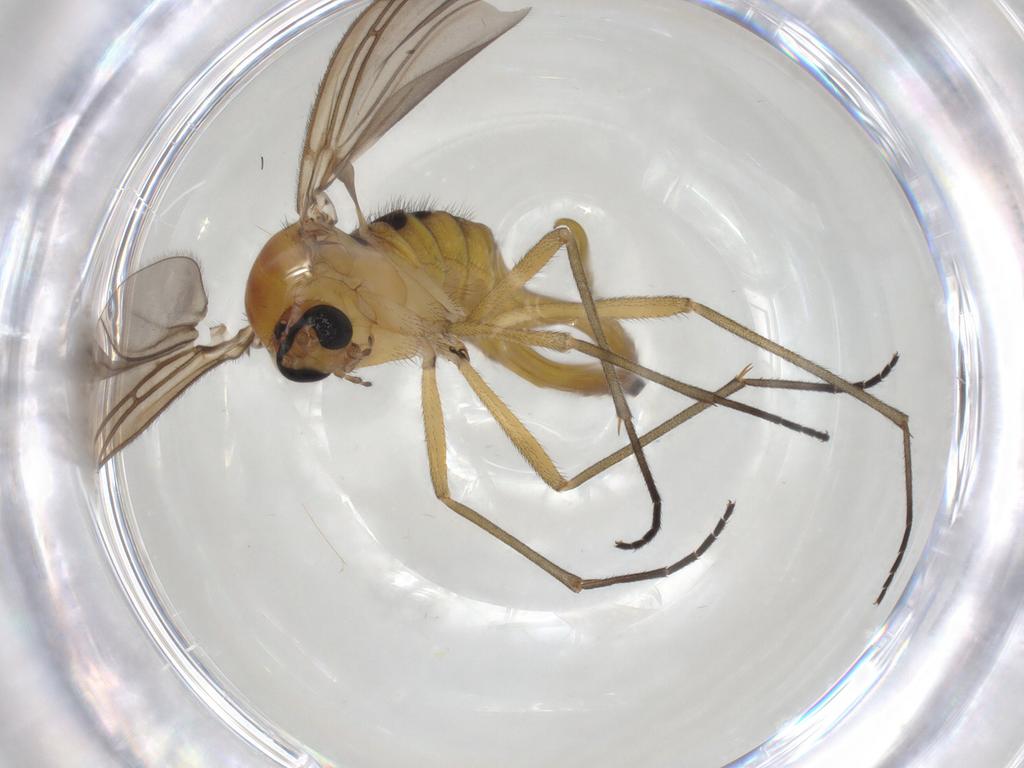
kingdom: Animalia
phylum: Arthropoda
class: Insecta
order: Diptera
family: Sciaridae
